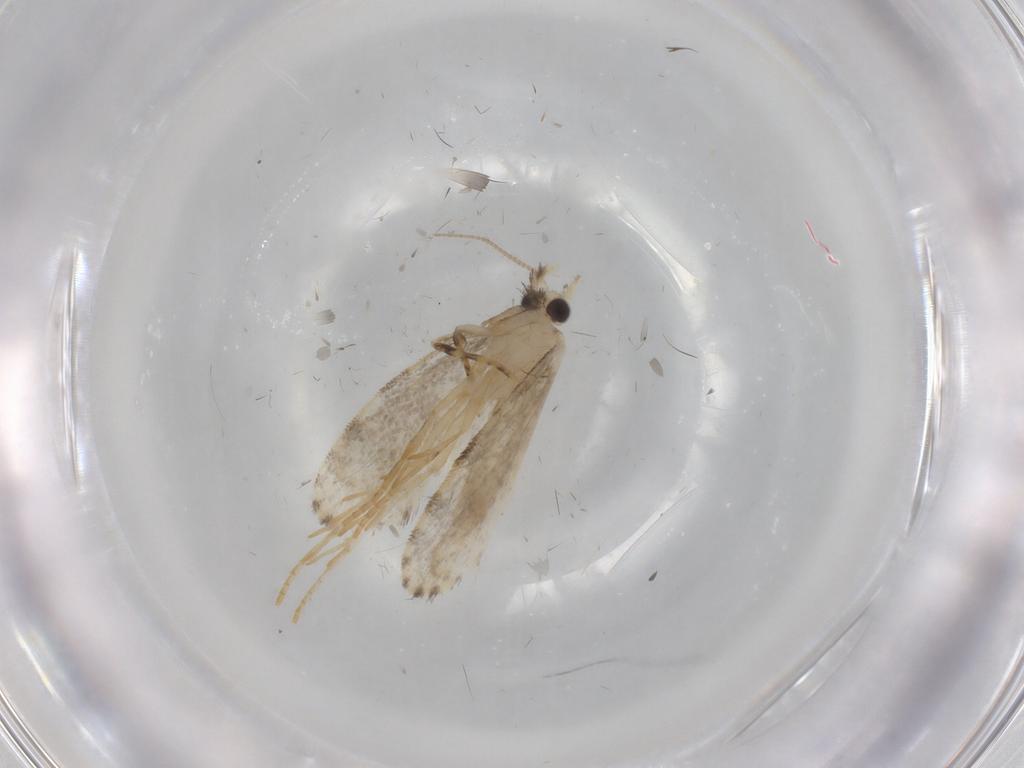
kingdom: Animalia
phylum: Arthropoda
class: Insecta
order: Lepidoptera
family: Psychidae
